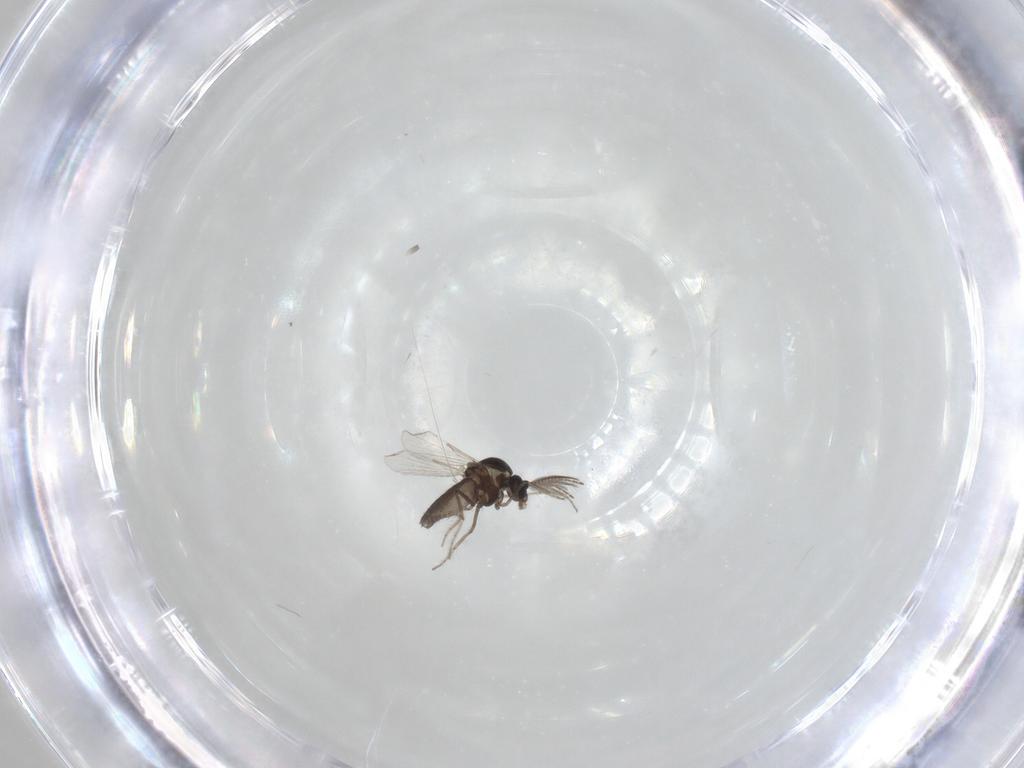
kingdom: Animalia
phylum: Arthropoda
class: Insecta
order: Diptera
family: Ceratopogonidae
